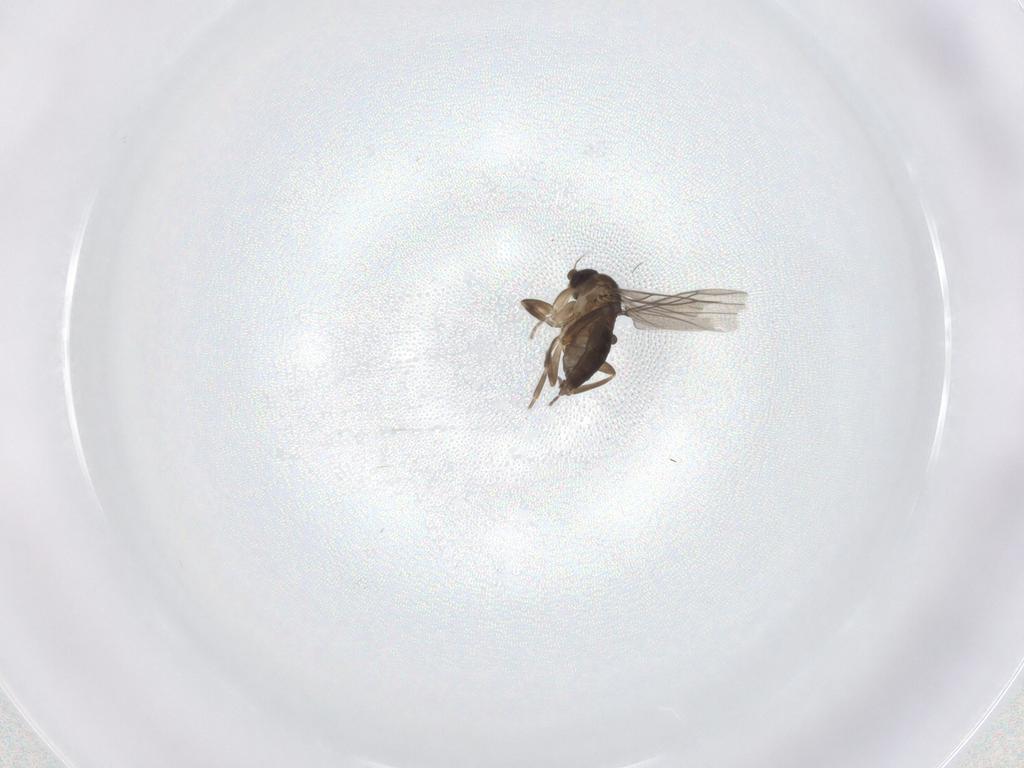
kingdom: Animalia
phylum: Arthropoda
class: Insecta
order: Diptera
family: Phoridae
